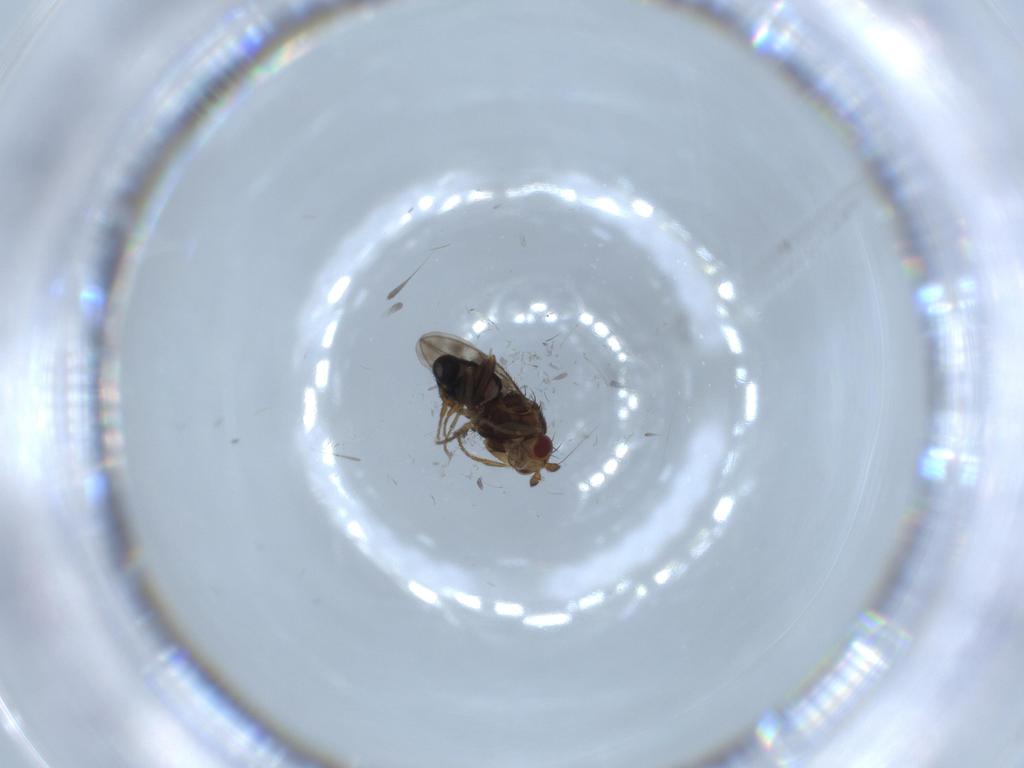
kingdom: Animalia
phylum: Arthropoda
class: Insecta
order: Diptera
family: Sphaeroceridae
